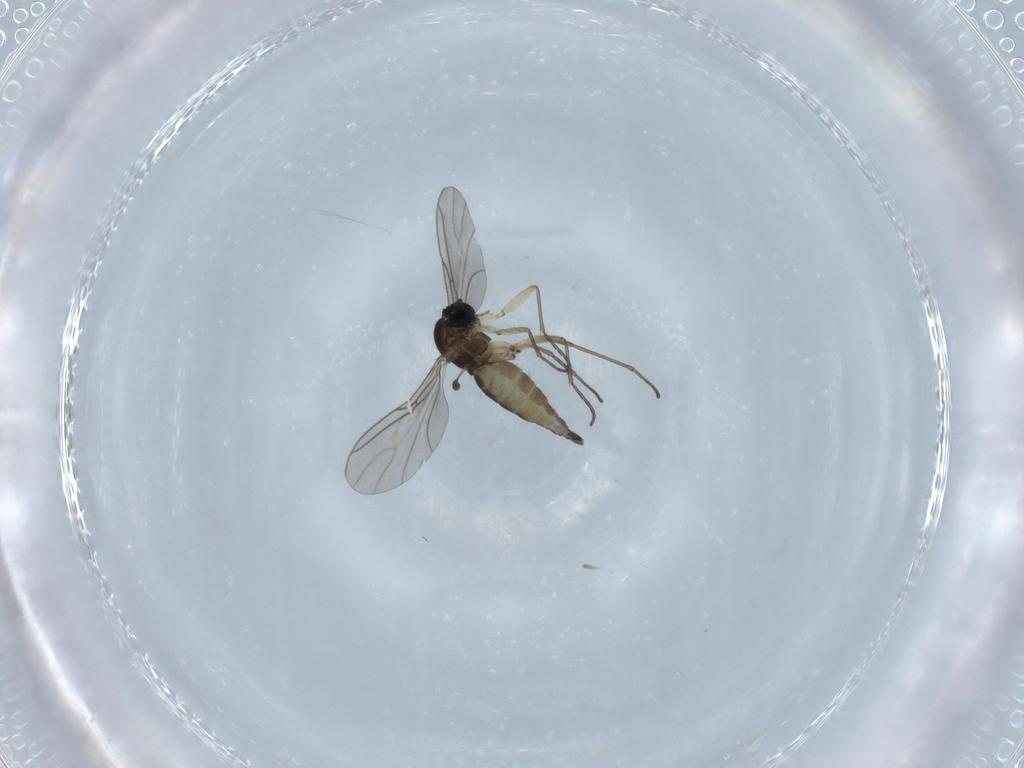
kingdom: Animalia
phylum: Arthropoda
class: Insecta
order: Diptera
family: Sciaridae
